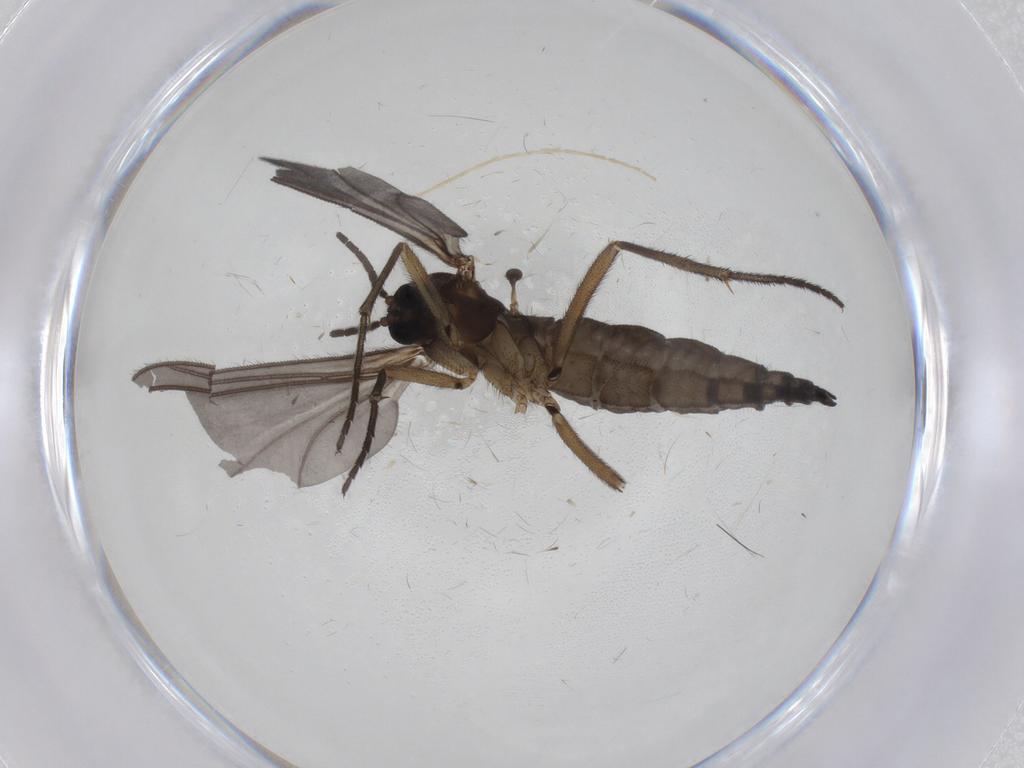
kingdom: Animalia
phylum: Arthropoda
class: Insecta
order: Diptera
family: Sciaridae
